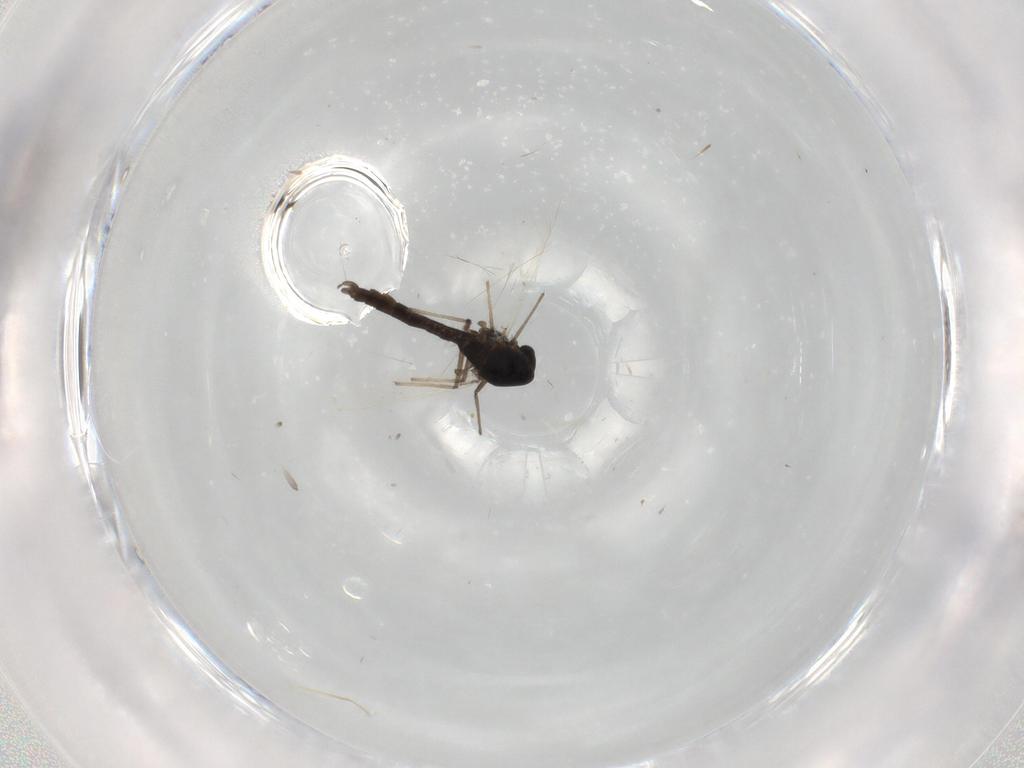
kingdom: Animalia
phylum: Arthropoda
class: Insecta
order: Diptera
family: Chironomidae
